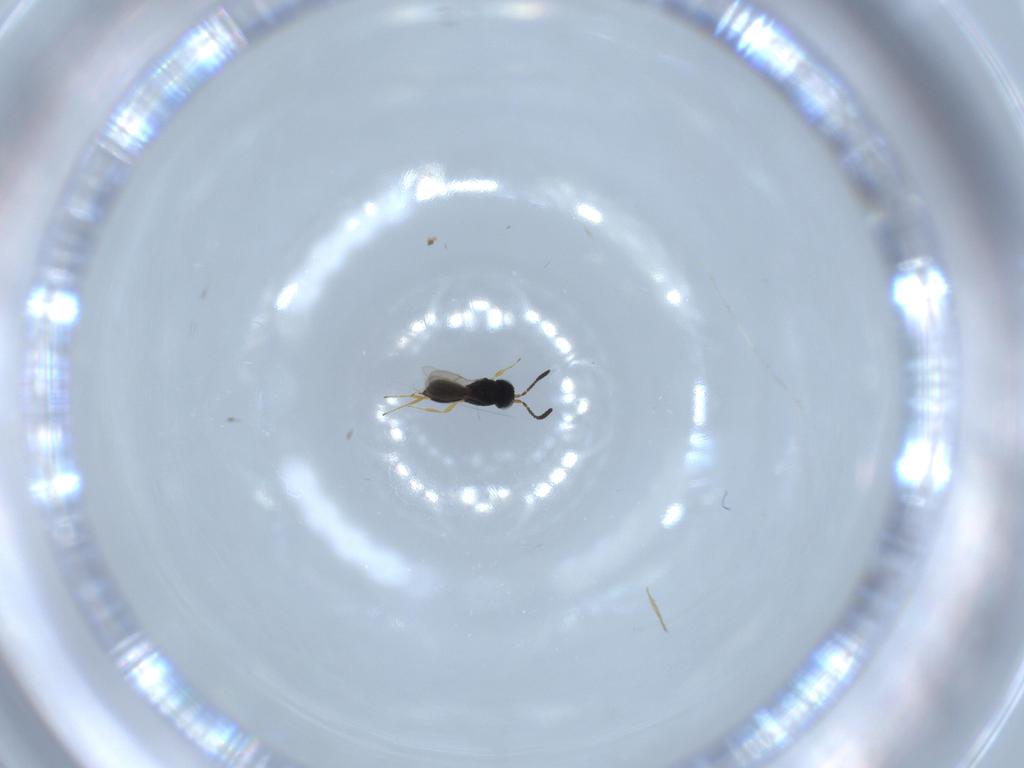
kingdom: Animalia
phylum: Arthropoda
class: Insecta
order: Hymenoptera
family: Scelionidae
